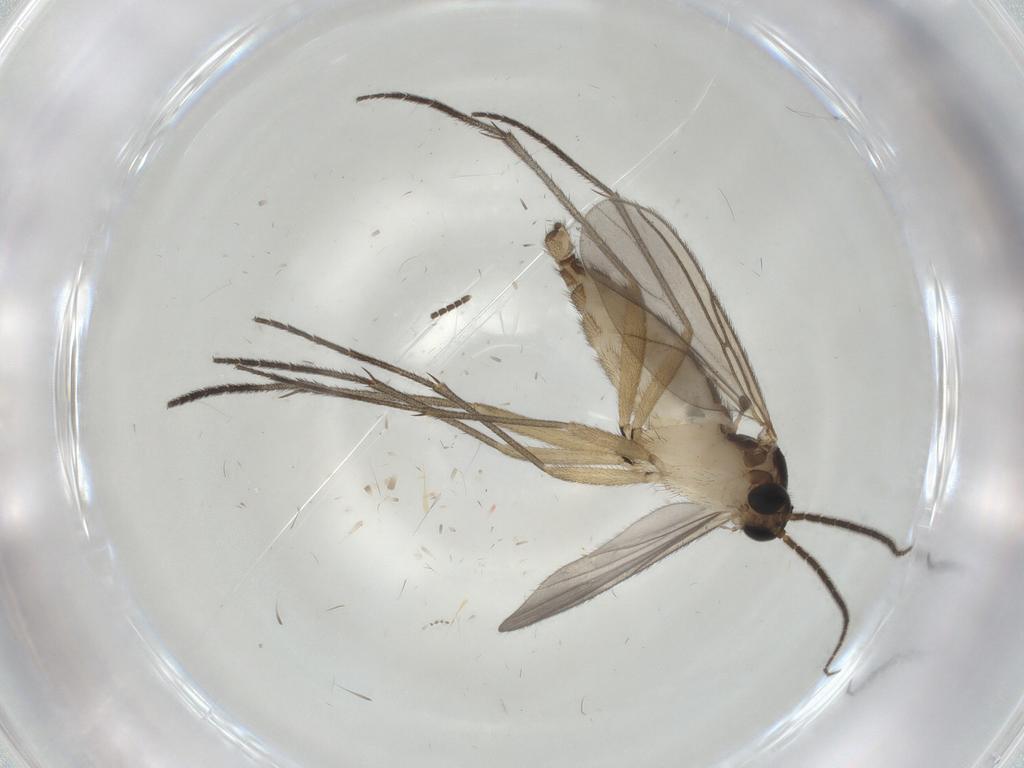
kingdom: Animalia
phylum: Arthropoda
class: Insecta
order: Diptera
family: Sciaridae
